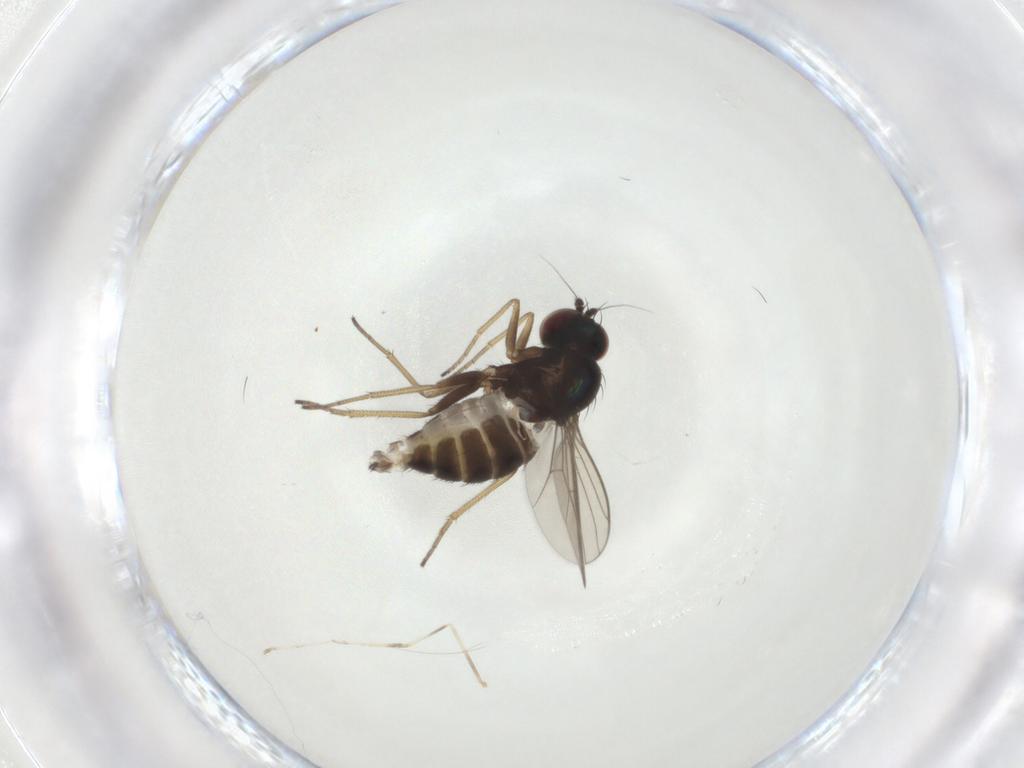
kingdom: Animalia
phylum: Arthropoda
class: Insecta
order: Diptera
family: Dolichopodidae
